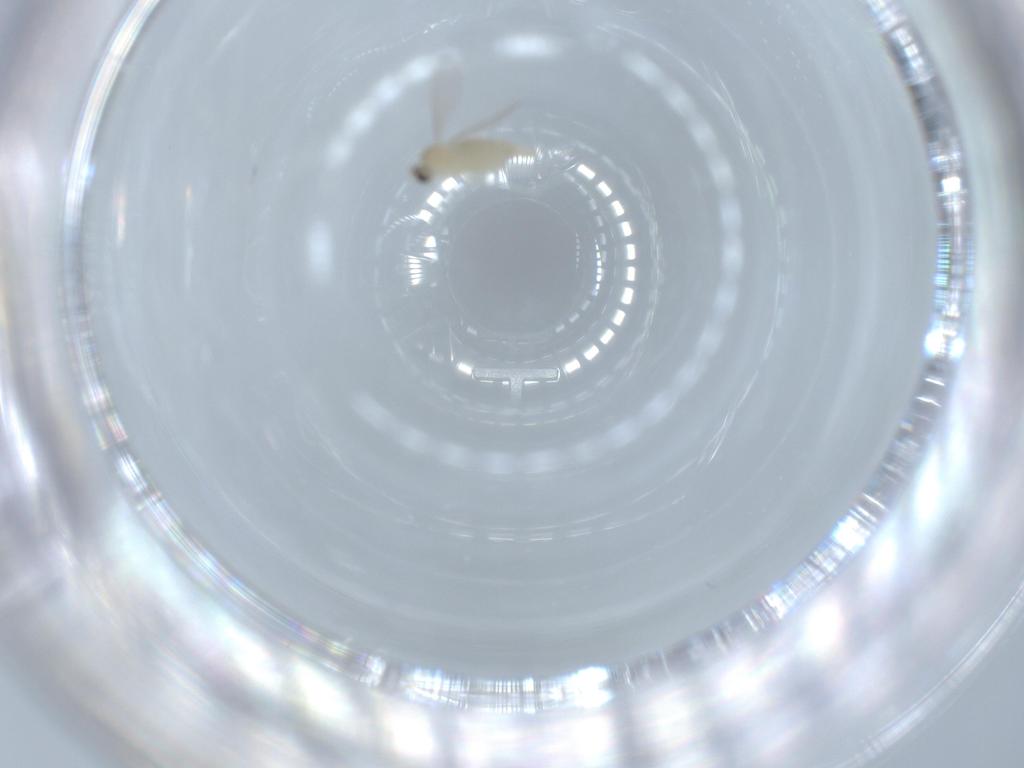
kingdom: Animalia
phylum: Arthropoda
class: Insecta
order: Diptera
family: Cecidomyiidae
